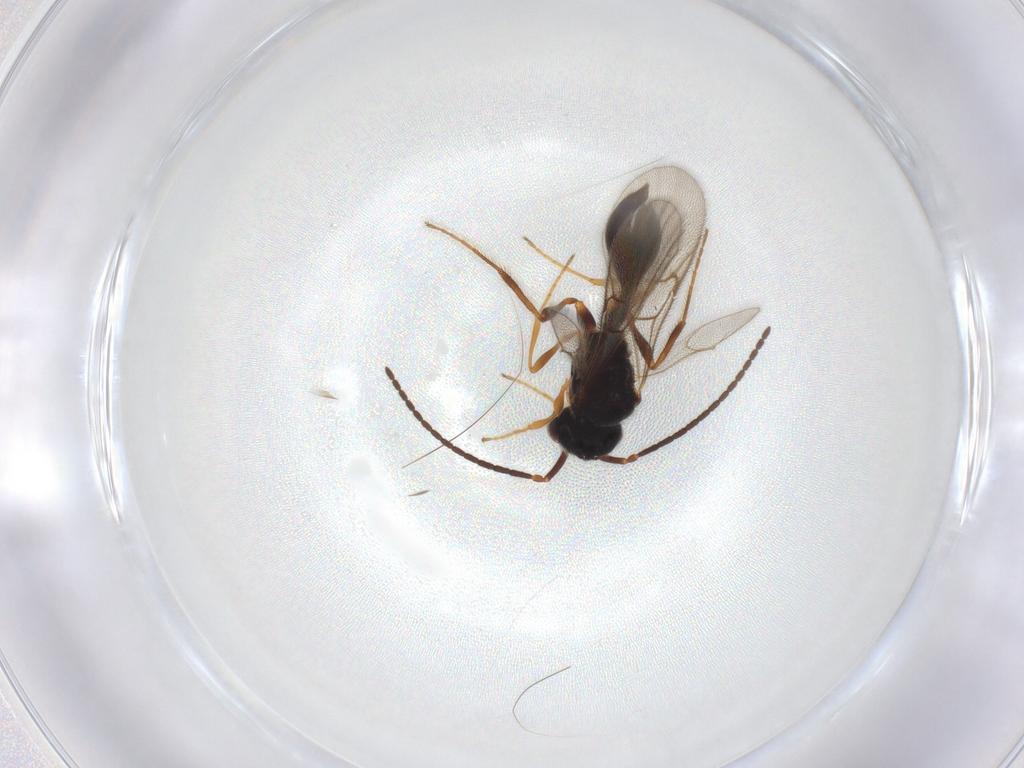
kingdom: Animalia
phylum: Arthropoda
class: Insecta
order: Hymenoptera
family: Diapriidae
